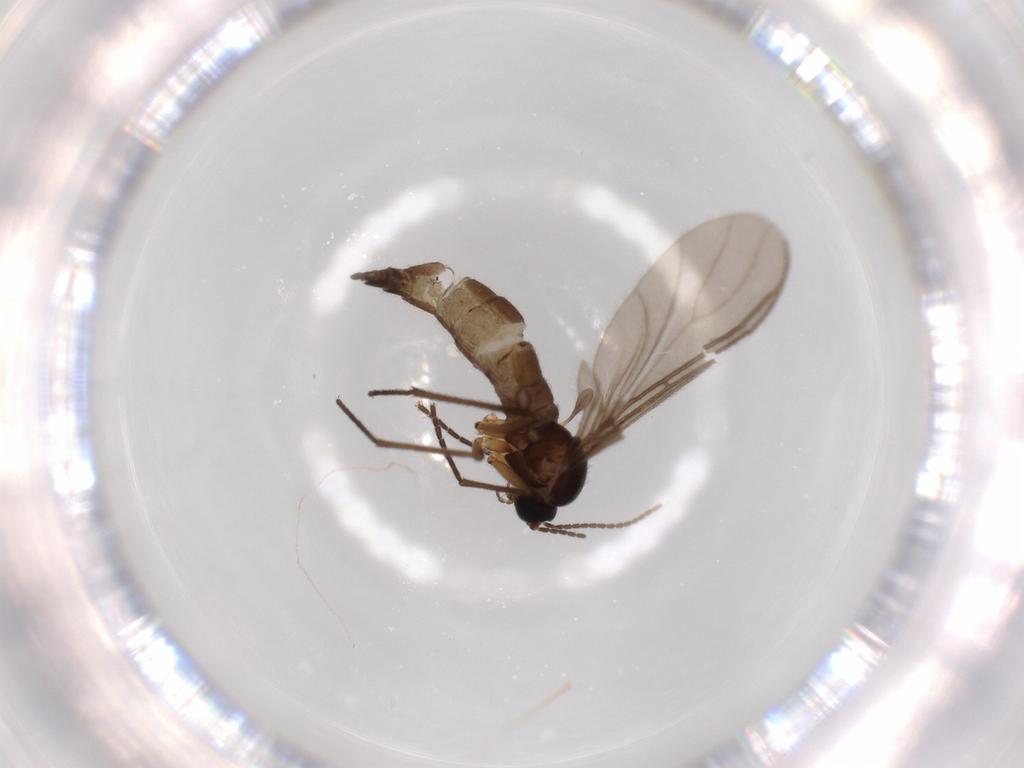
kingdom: Animalia
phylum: Arthropoda
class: Insecta
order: Diptera
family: Sciaridae
